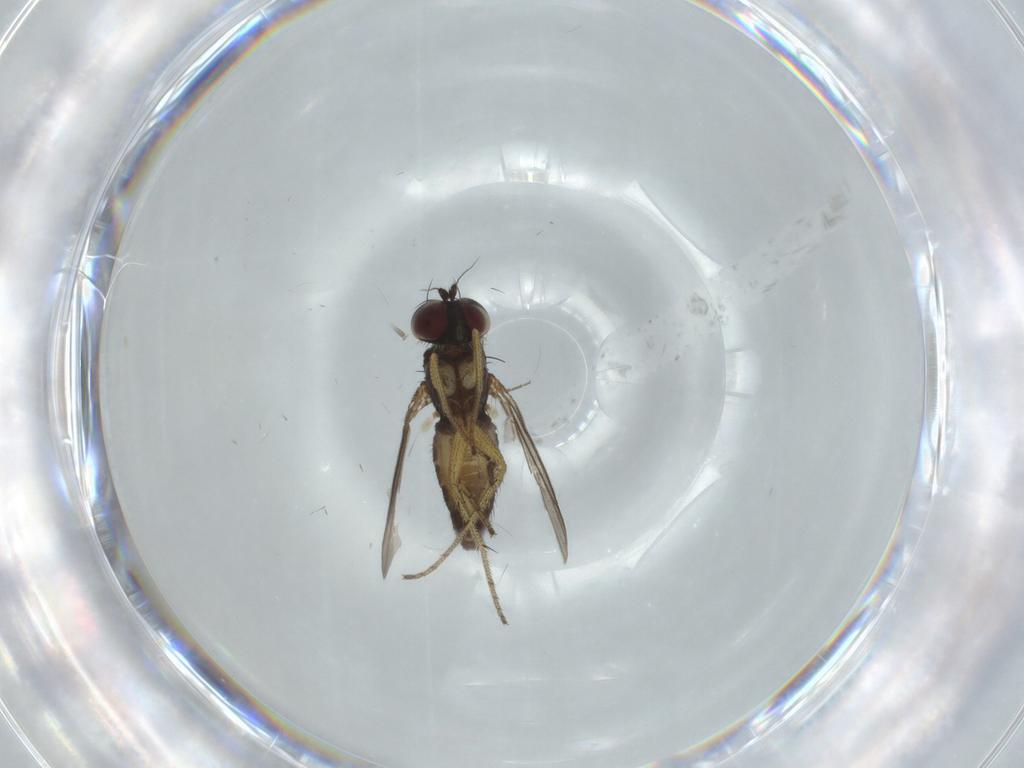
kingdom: Animalia
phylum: Arthropoda
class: Insecta
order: Diptera
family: Dolichopodidae
